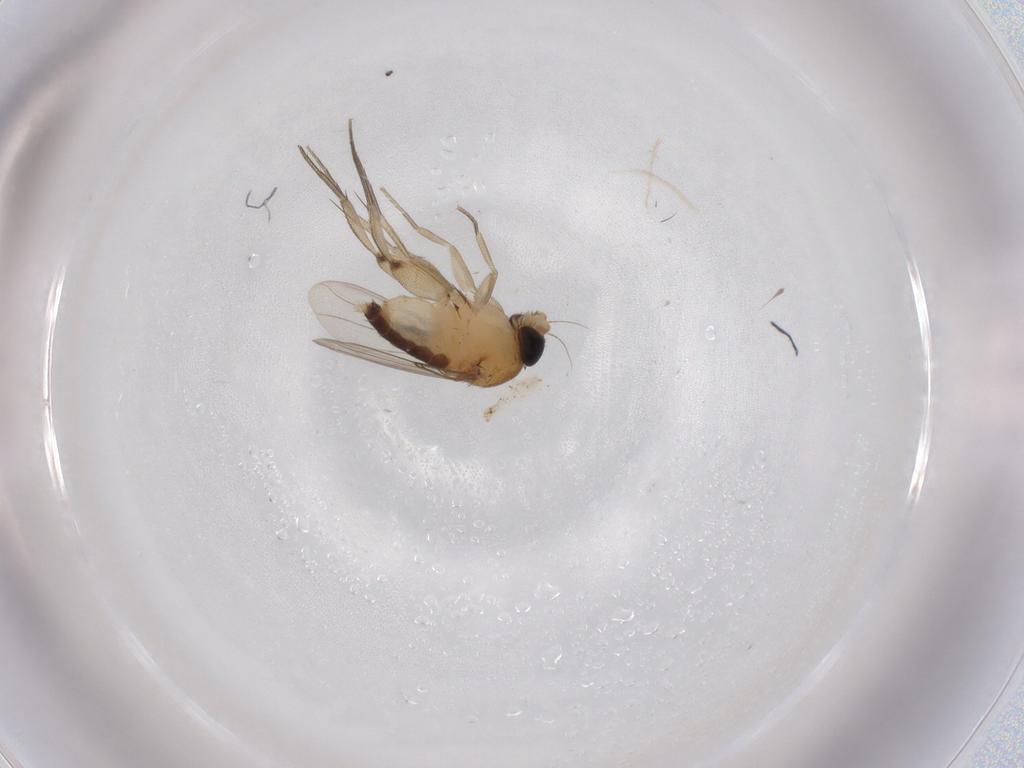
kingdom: Animalia
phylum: Arthropoda
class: Insecta
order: Diptera
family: Phoridae
